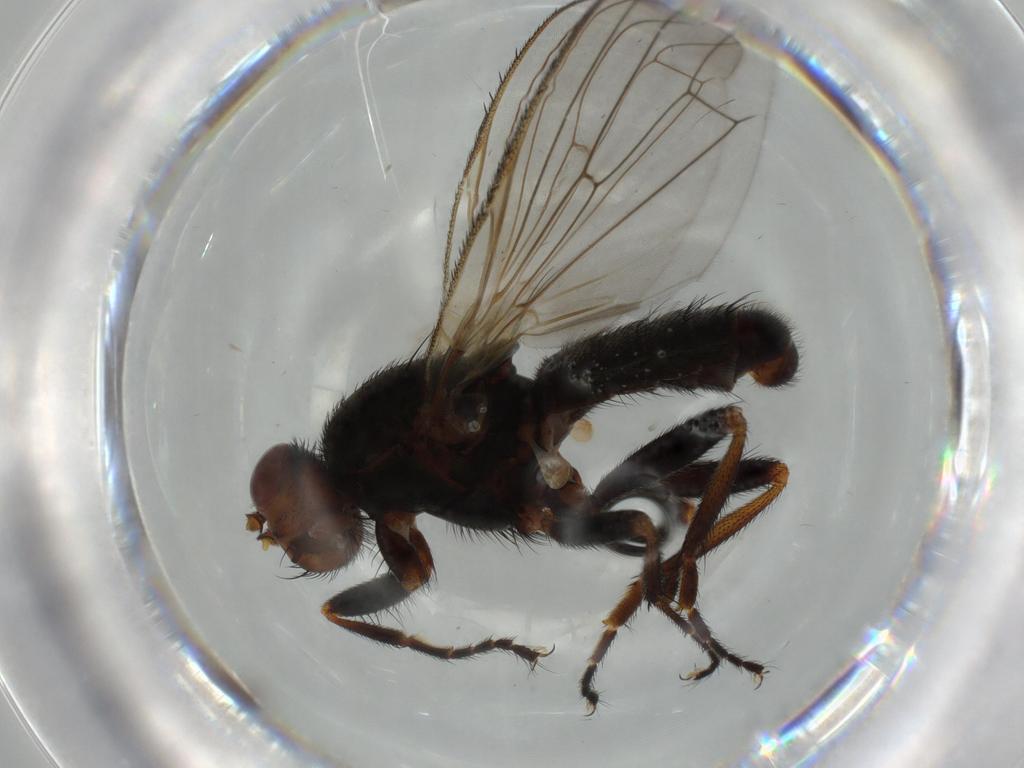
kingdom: Animalia
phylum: Arthropoda
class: Insecta
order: Diptera
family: Heleomyzidae
